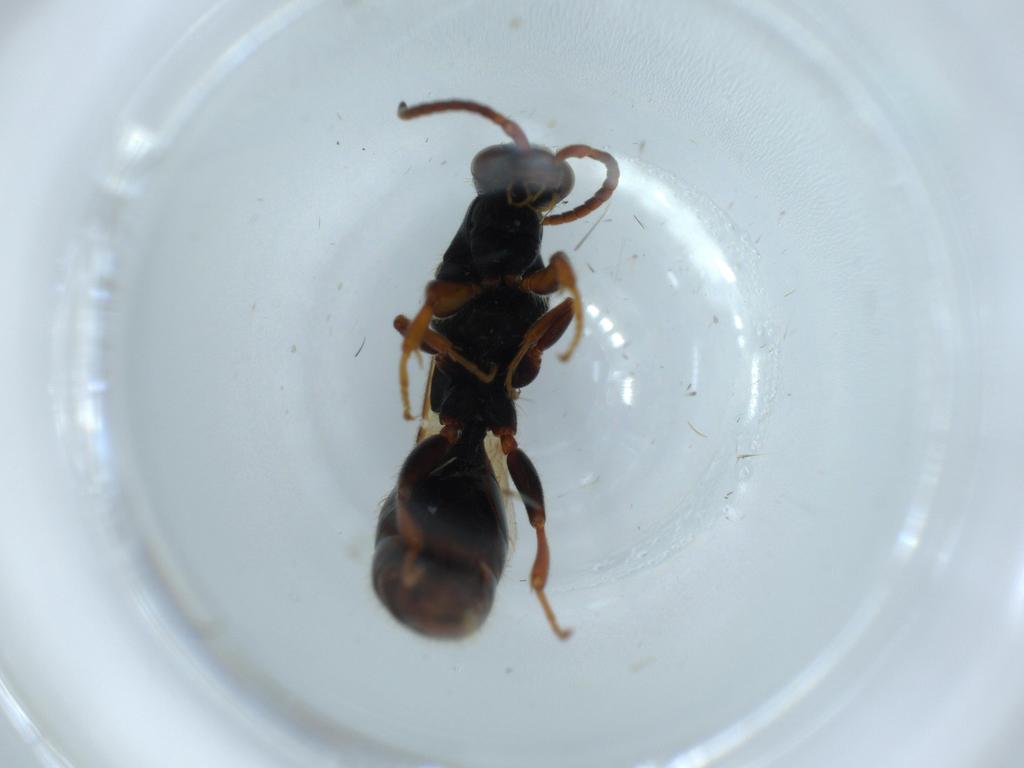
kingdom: Animalia
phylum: Arthropoda
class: Insecta
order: Hymenoptera
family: Bethylidae
